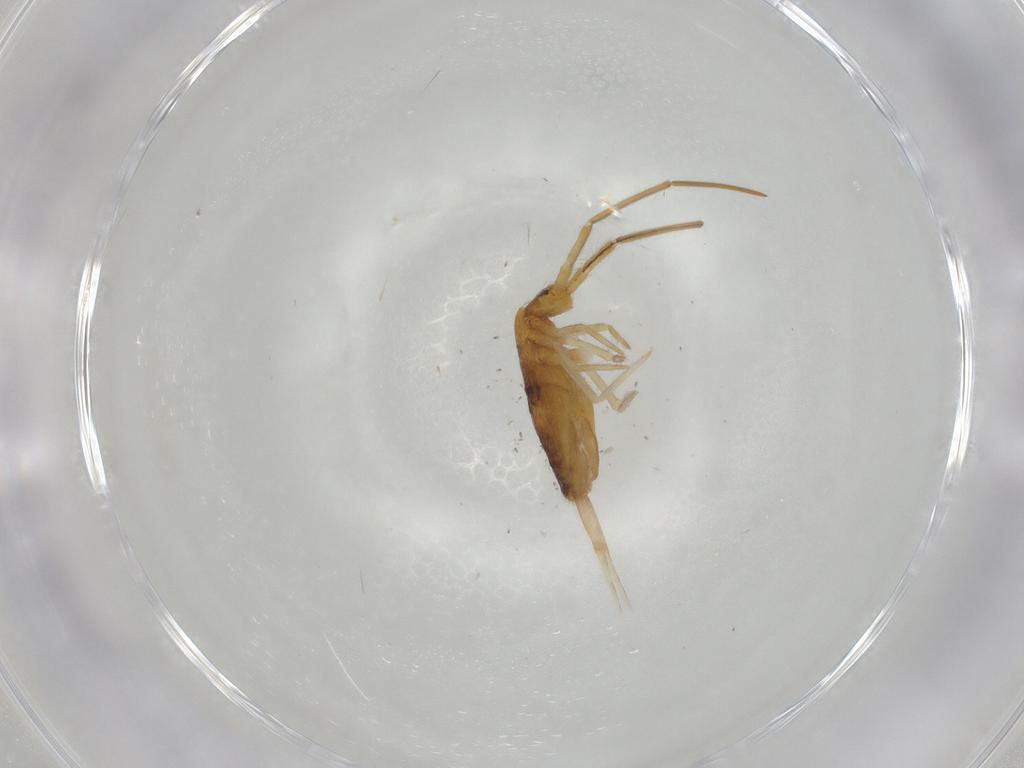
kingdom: Animalia
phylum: Arthropoda
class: Collembola
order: Entomobryomorpha
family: Entomobryidae
